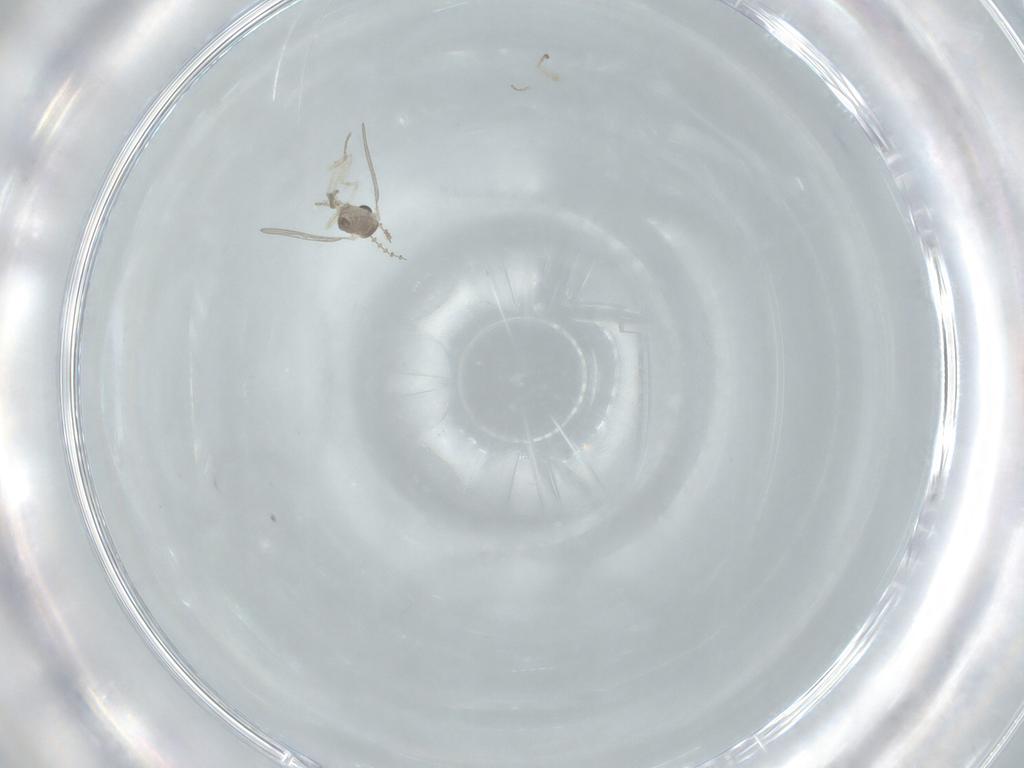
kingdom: Animalia
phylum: Arthropoda
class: Insecta
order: Diptera
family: Cecidomyiidae
